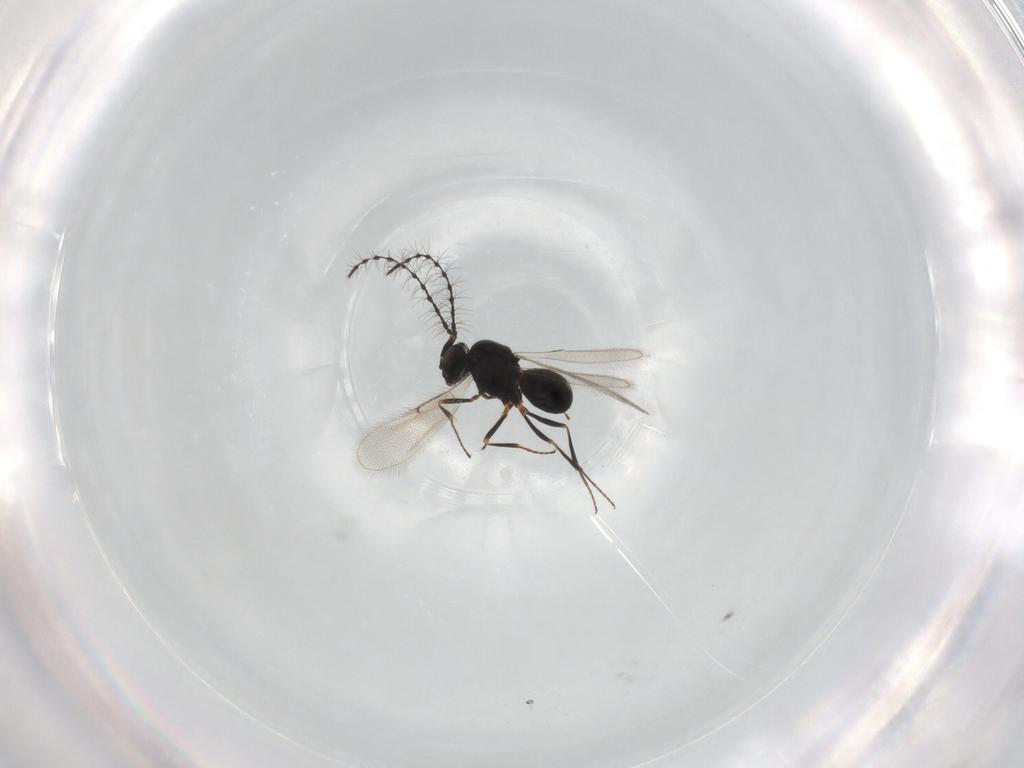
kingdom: Animalia
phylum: Arthropoda
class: Insecta
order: Hymenoptera
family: Scelionidae
